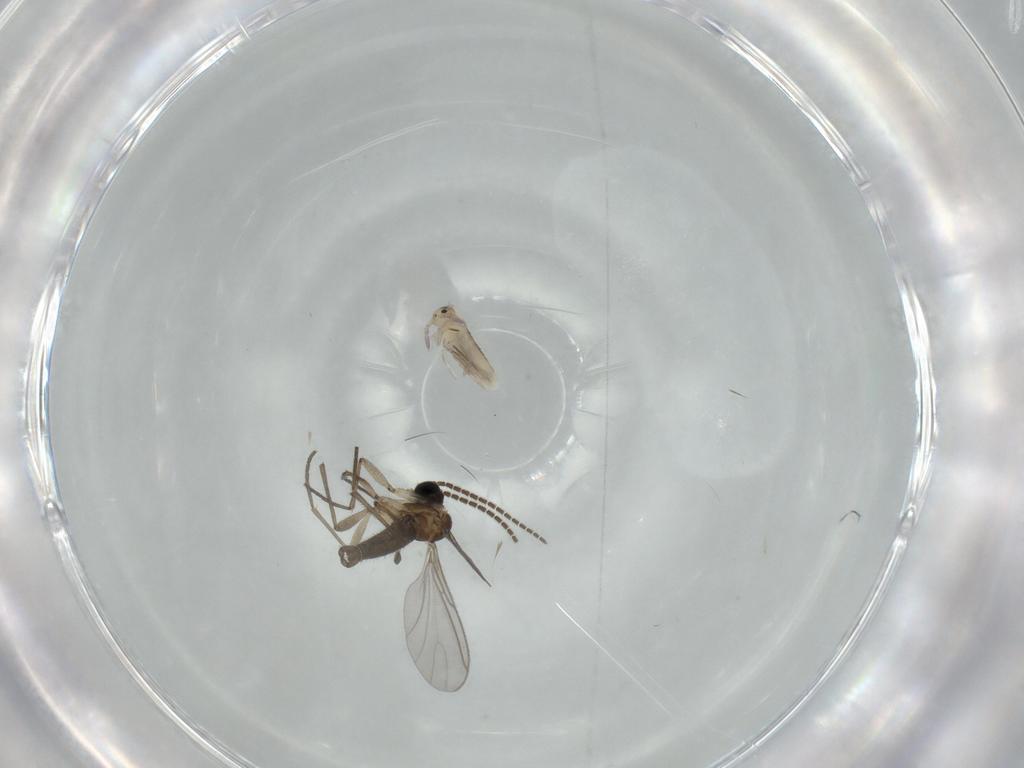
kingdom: Animalia
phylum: Arthropoda
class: Insecta
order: Diptera
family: Sciaridae
